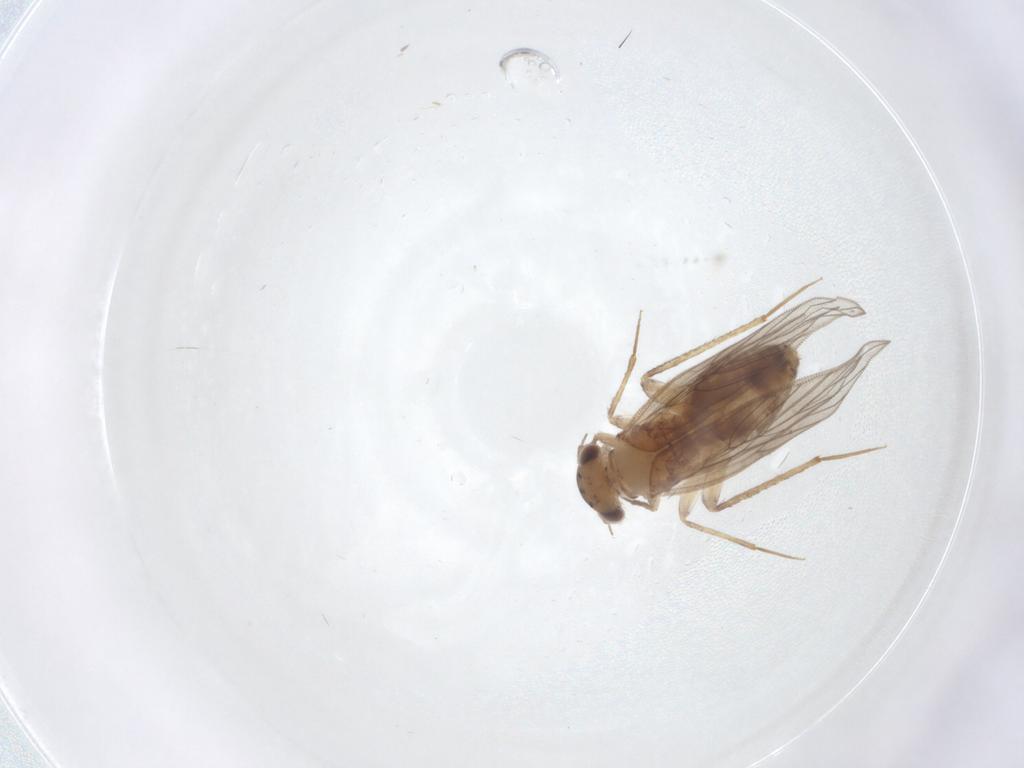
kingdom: Animalia
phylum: Arthropoda
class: Insecta
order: Psocodea
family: Lepidopsocidae
